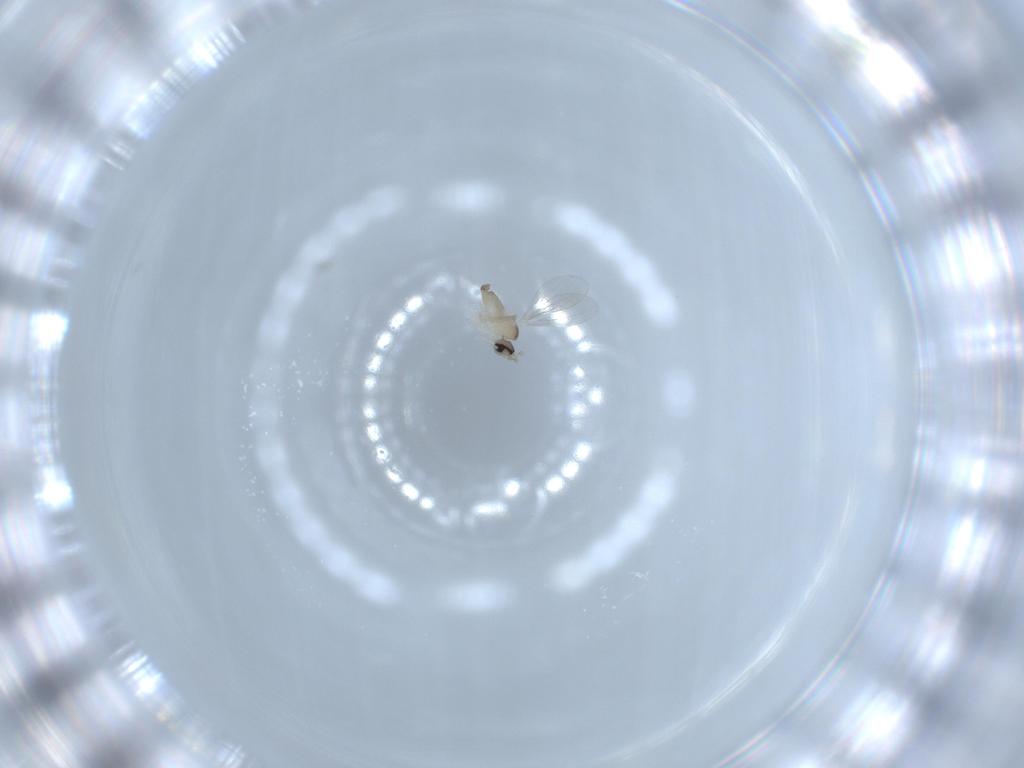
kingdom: Animalia
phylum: Arthropoda
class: Insecta
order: Diptera
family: Cecidomyiidae
